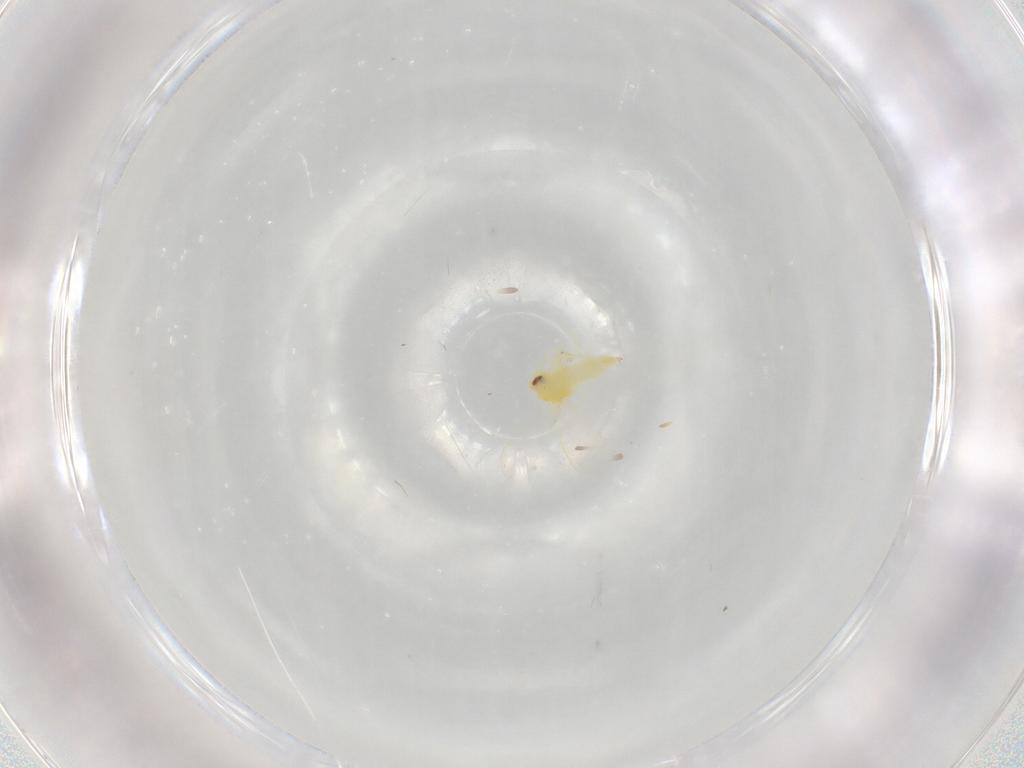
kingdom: Animalia
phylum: Arthropoda
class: Insecta
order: Hemiptera
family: Aleyrodidae
